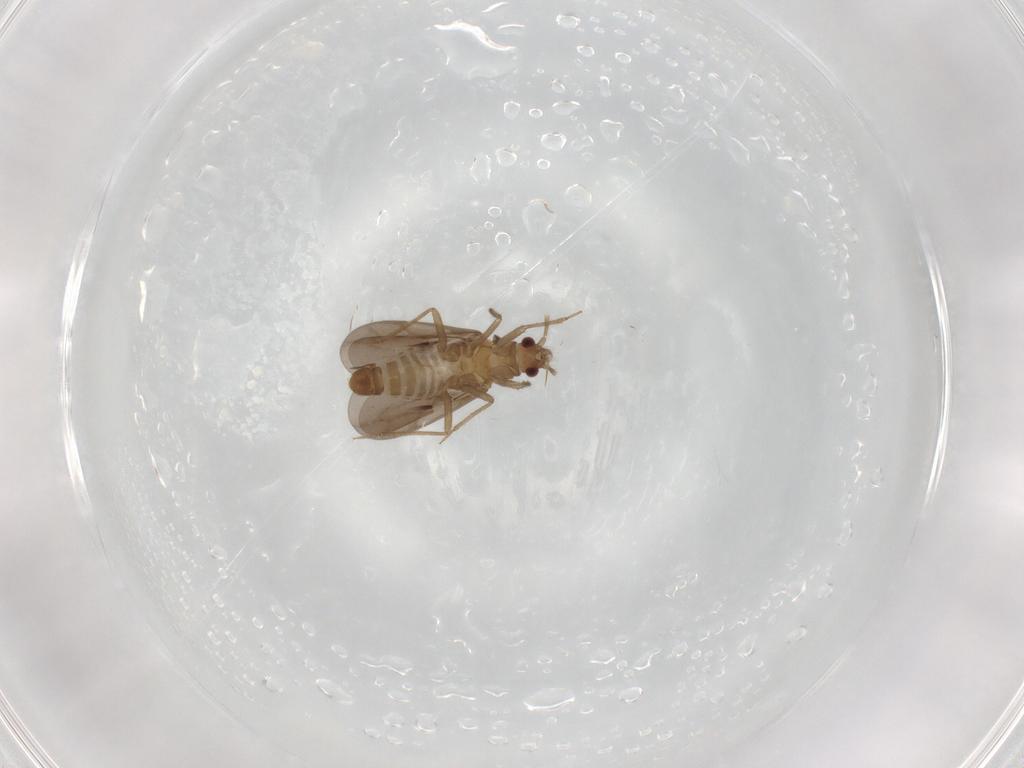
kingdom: Animalia
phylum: Arthropoda
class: Insecta
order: Hemiptera
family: Ceratocombidae
